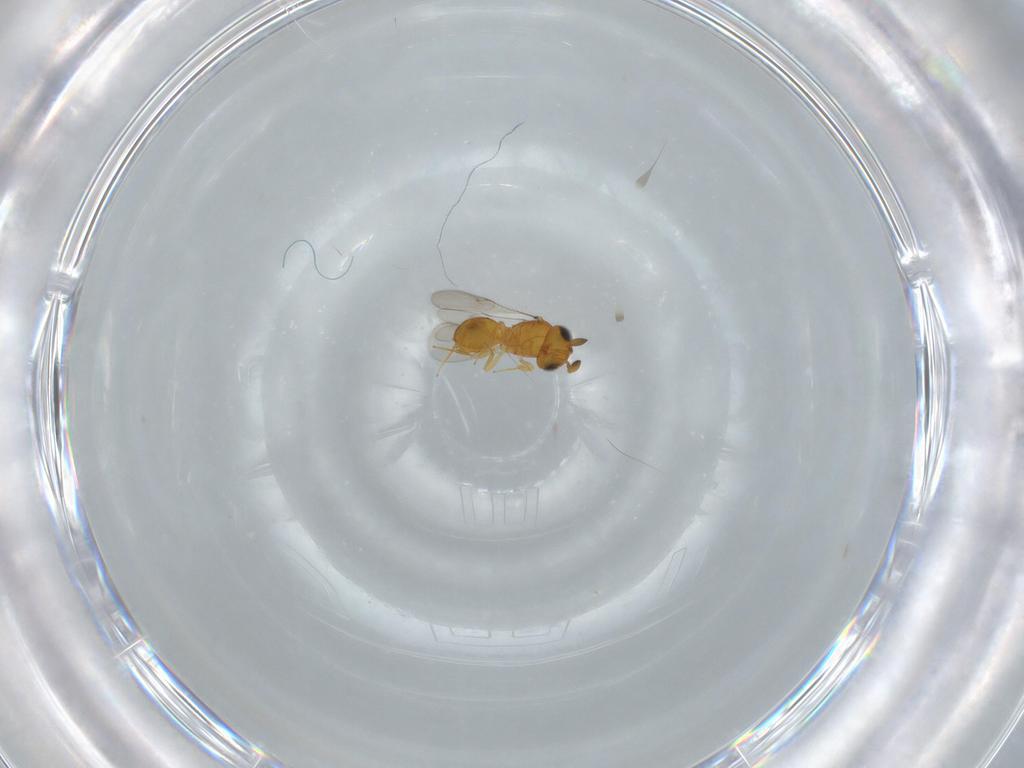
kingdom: Animalia
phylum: Arthropoda
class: Insecta
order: Hymenoptera
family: Scelionidae
